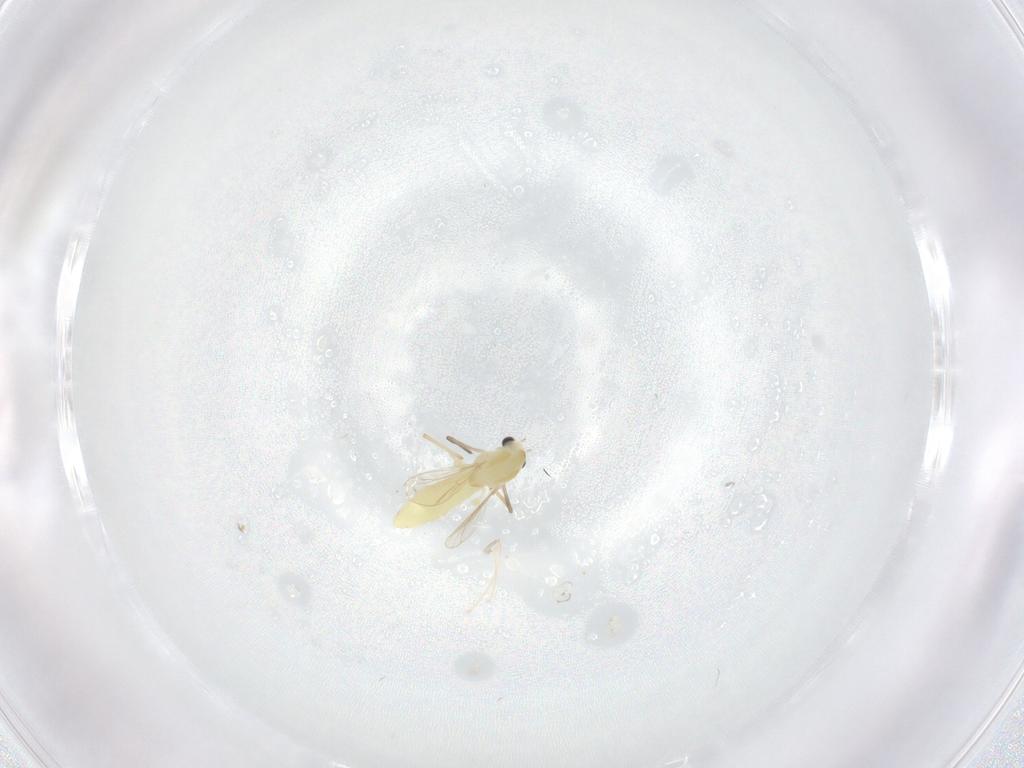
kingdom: Animalia
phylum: Arthropoda
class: Insecta
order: Diptera
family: Chironomidae
